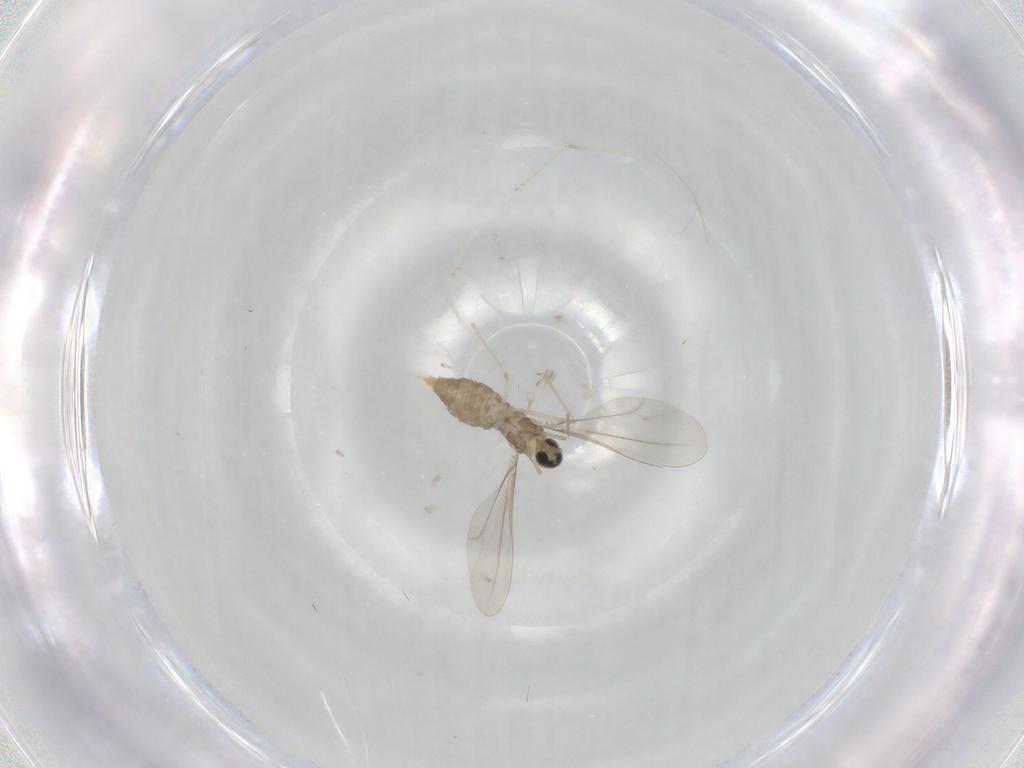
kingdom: Animalia
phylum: Arthropoda
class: Insecta
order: Diptera
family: Cecidomyiidae
